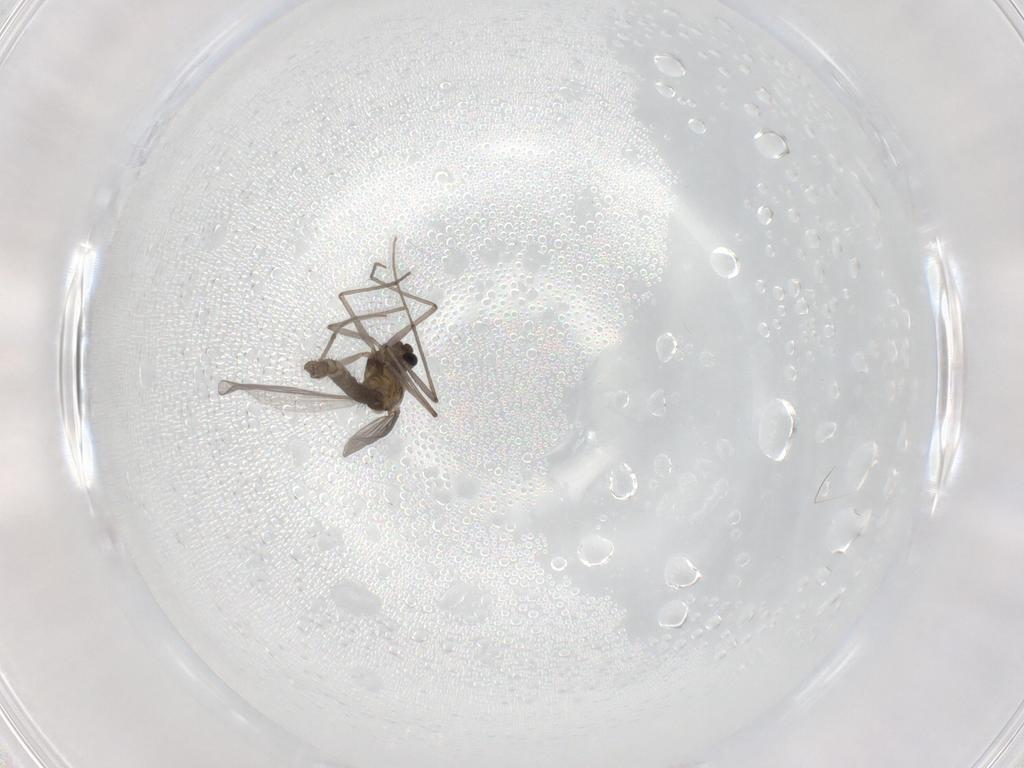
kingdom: Animalia
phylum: Arthropoda
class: Insecta
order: Diptera
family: Chironomidae
